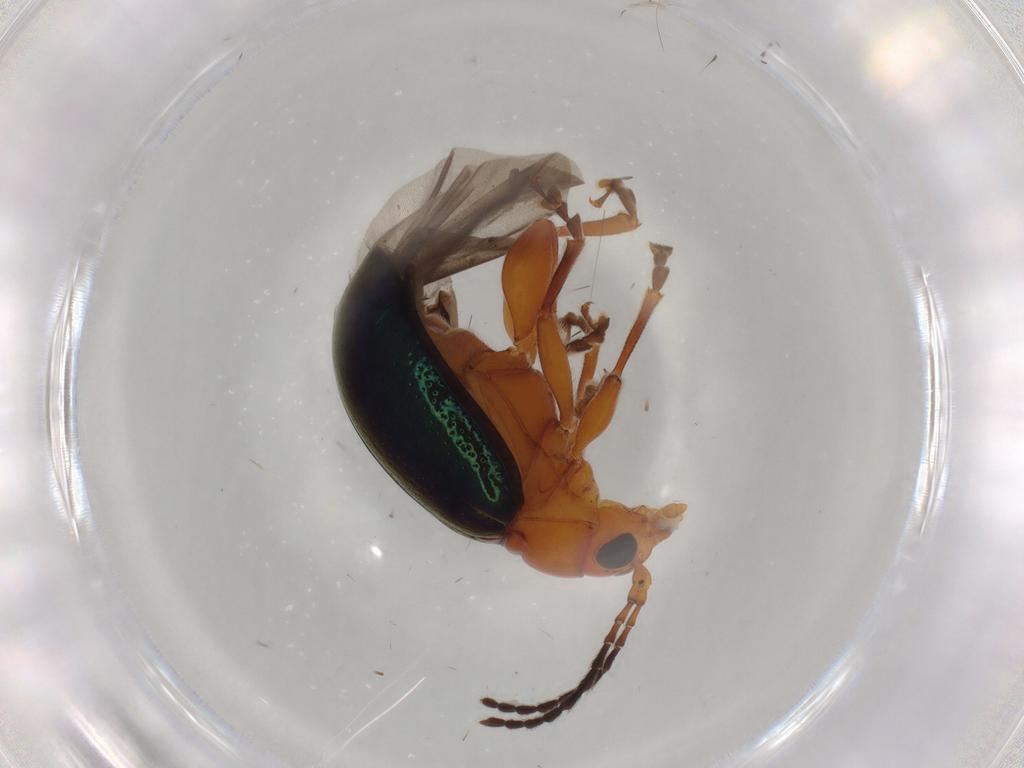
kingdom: Animalia
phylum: Arthropoda
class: Insecta
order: Coleoptera
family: Chrysomelidae
